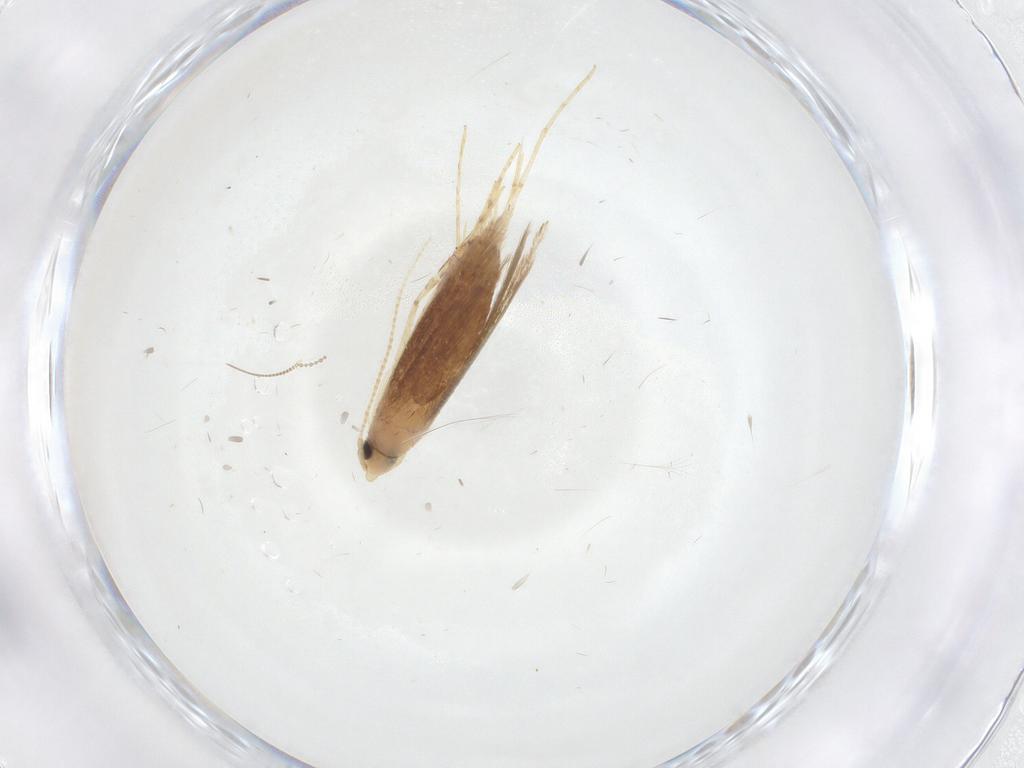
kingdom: Animalia
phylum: Arthropoda
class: Insecta
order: Lepidoptera
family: Lyonetiidae
